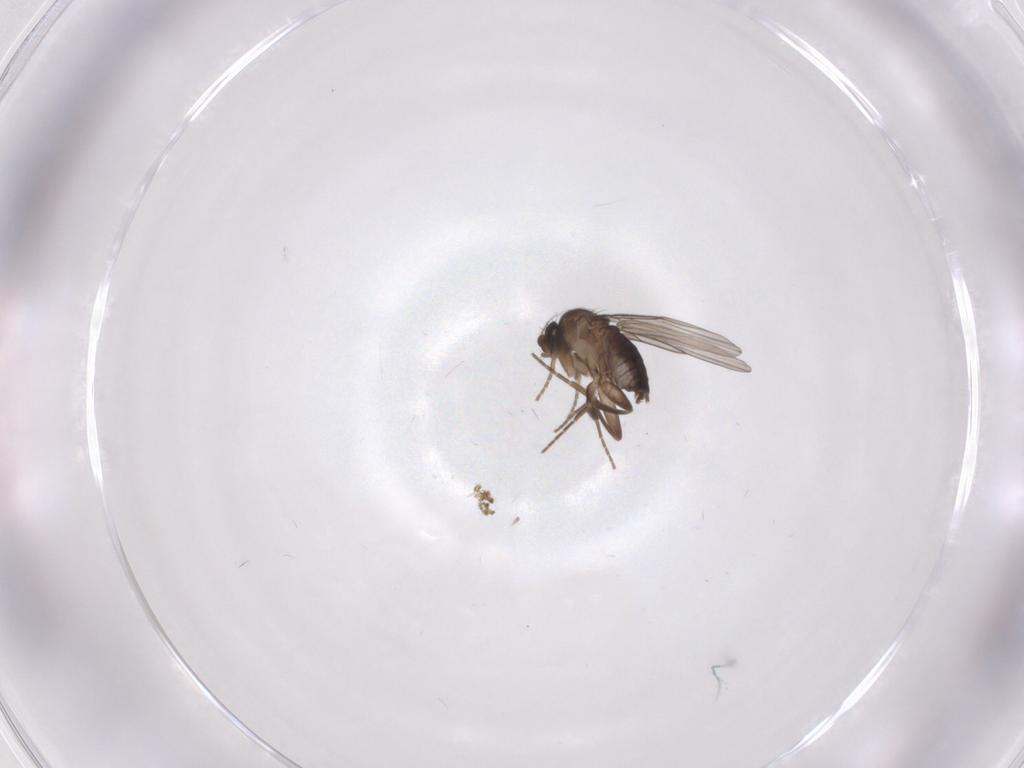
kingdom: Animalia
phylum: Arthropoda
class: Insecta
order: Diptera
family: Phoridae
